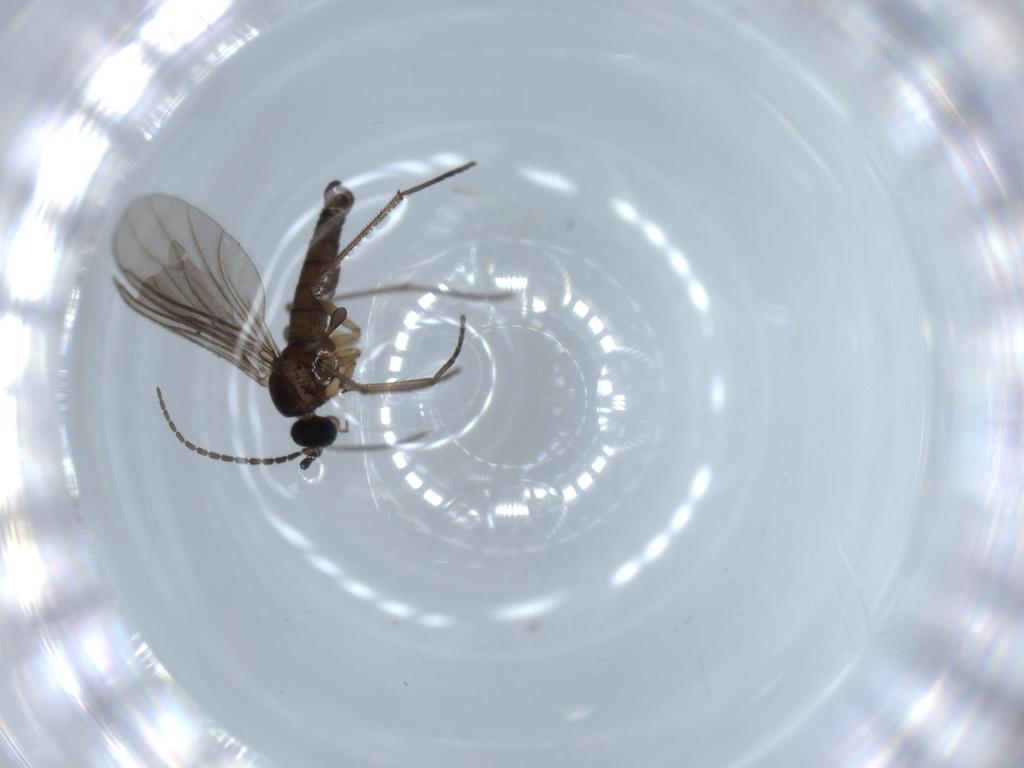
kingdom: Animalia
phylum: Arthropoda
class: Insecta
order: Diptera
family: Sciaridae
